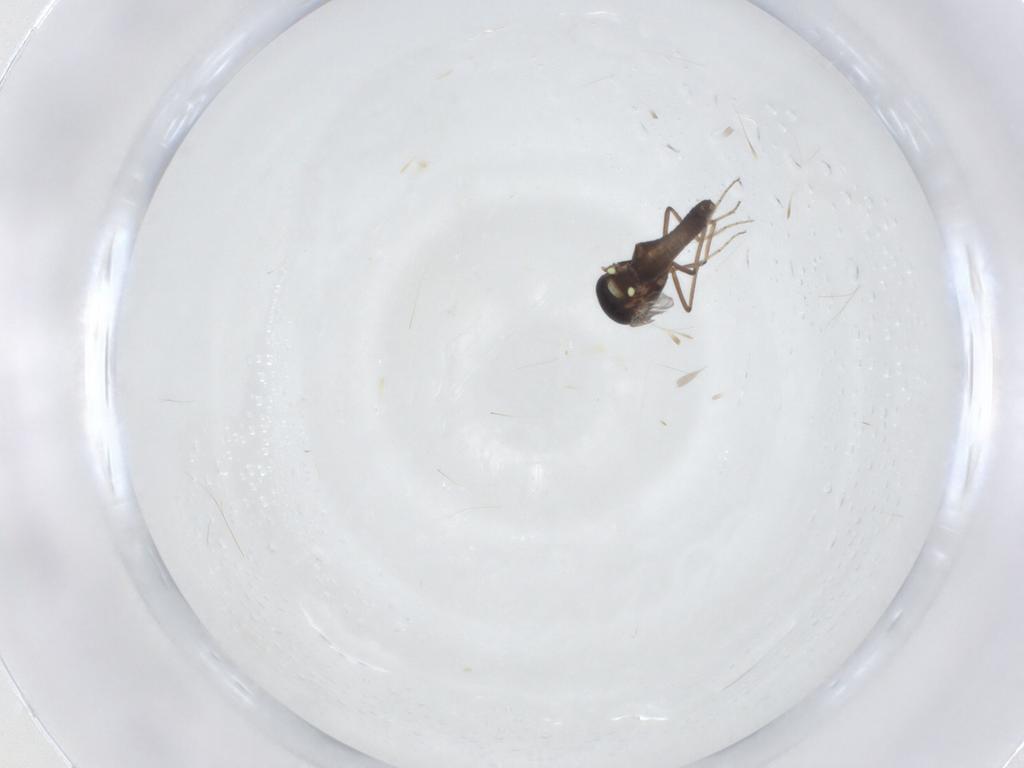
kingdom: Animalia
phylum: Arthropoda
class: Insecta
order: Diptera
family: Ceratopogonidae
